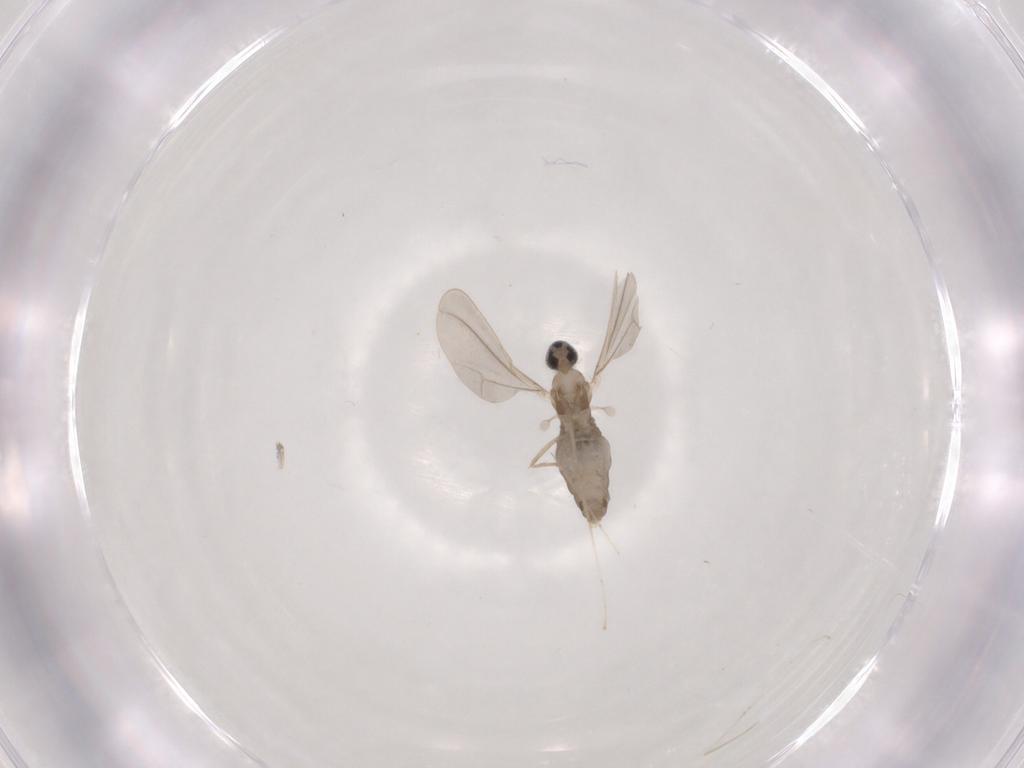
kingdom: Animalia
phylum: Arthropoda
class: Insecta
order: Diptera
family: Cecidomyiidae
